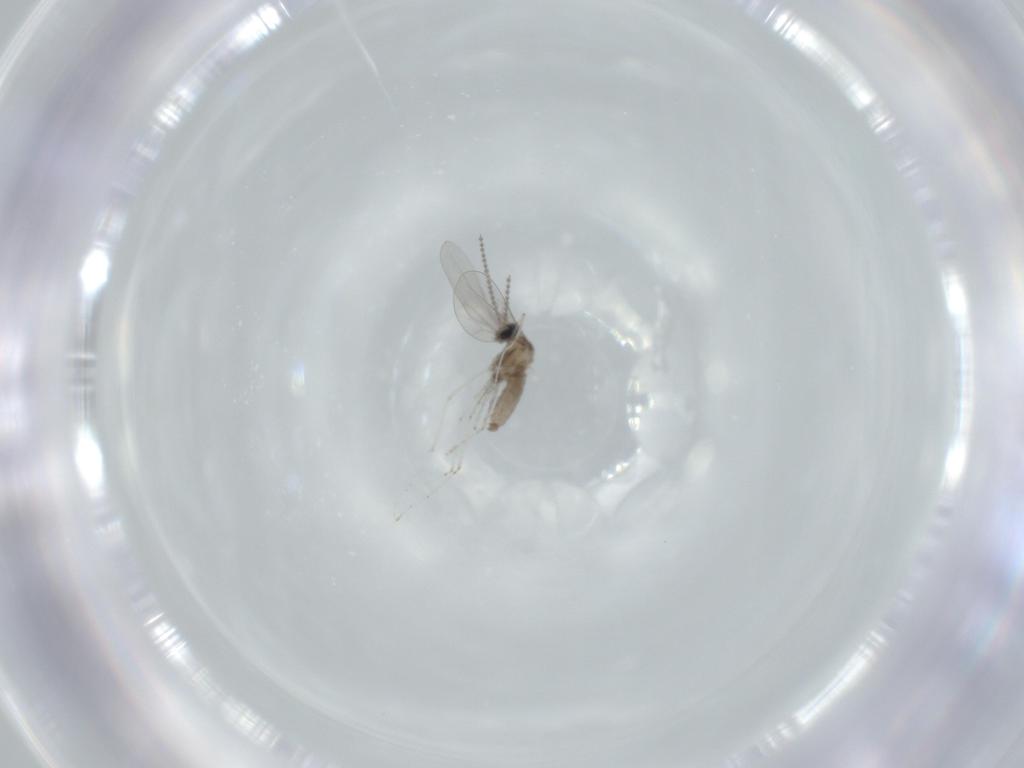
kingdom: Animalia
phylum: Arthropoda
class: Insecta
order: Diptera
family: Cecidomyiidae
